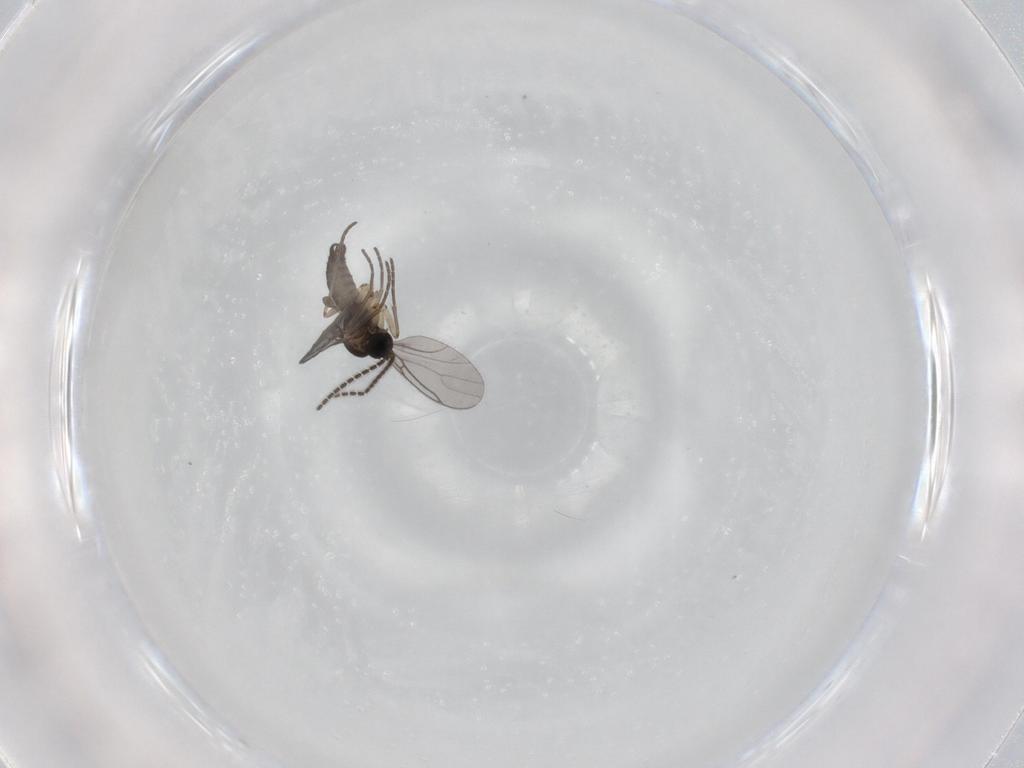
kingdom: Animalia
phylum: Arthropoda
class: Insecta
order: Diptera
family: Sciaridae
